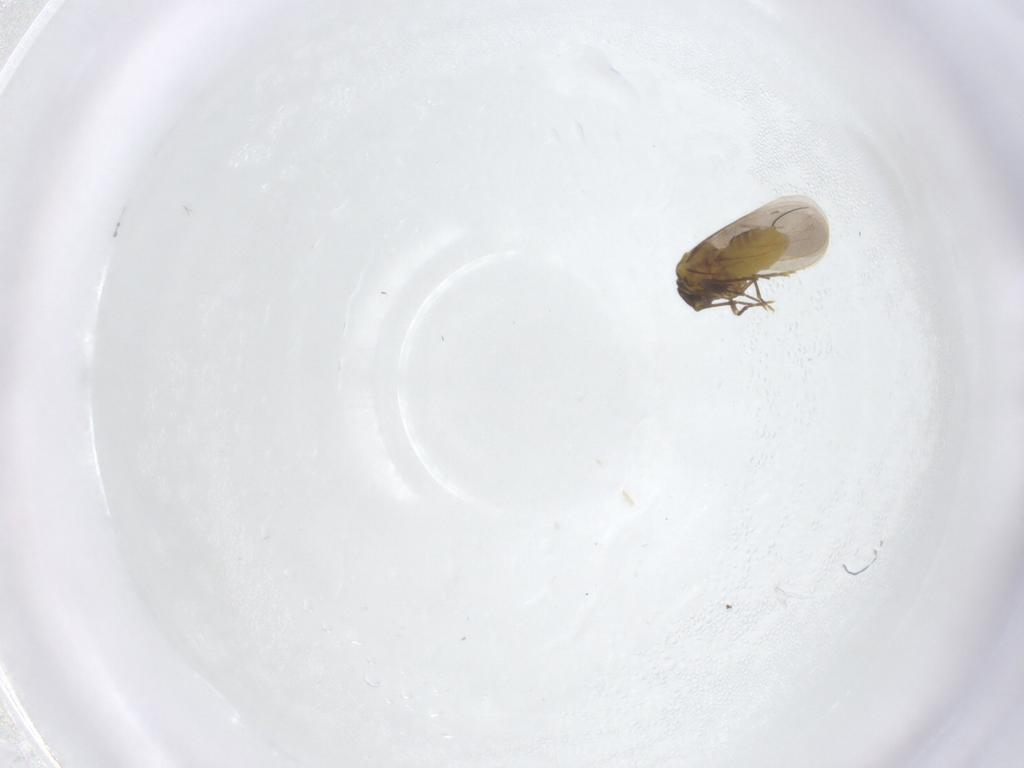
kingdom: Animalia
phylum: Arthropoda
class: Insecta
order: Hemiptera
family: Aleyrodidae
